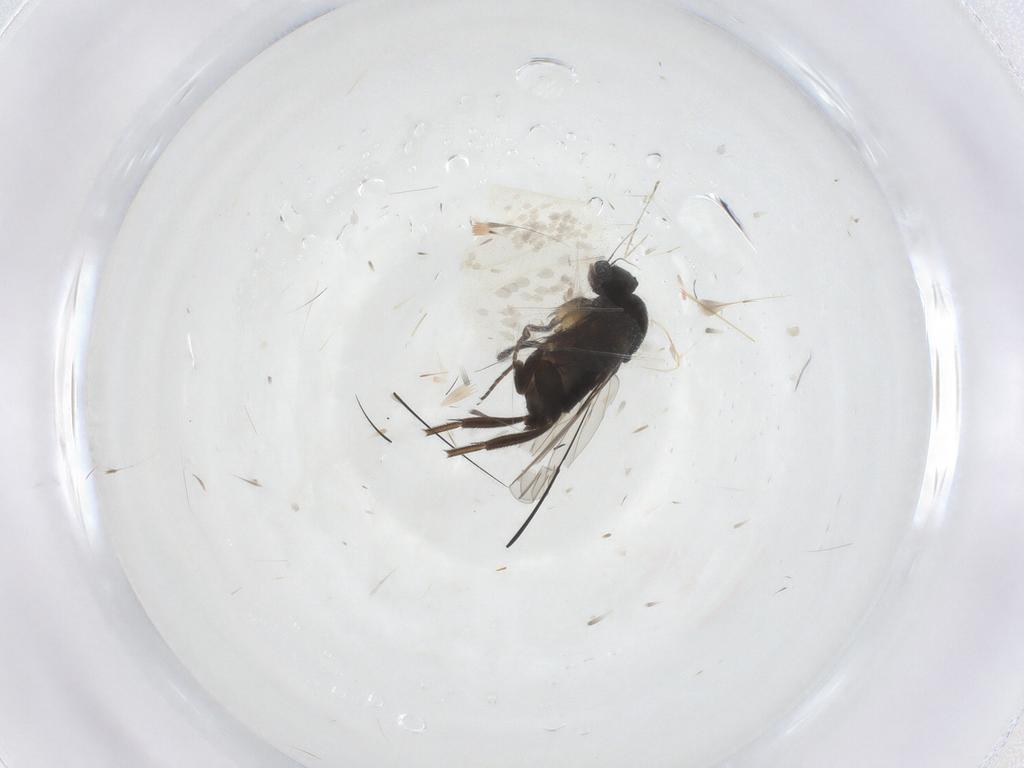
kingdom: Animalia
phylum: Arthropoda
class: Insecta
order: Diptera
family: Phoridae
